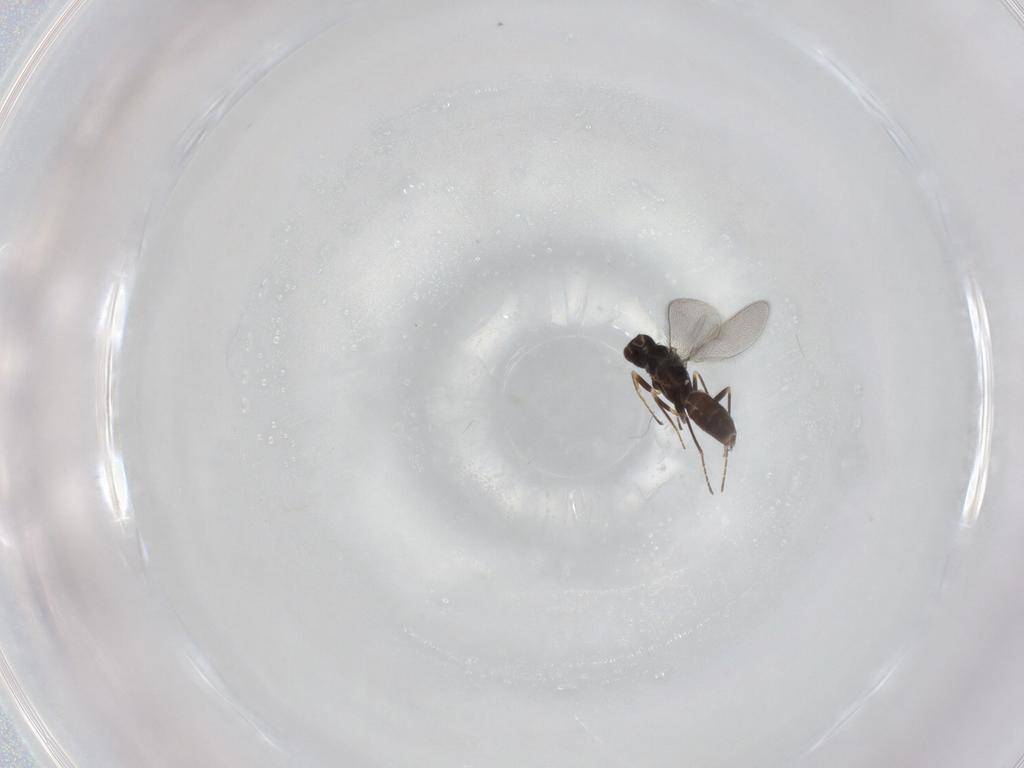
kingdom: Animalia
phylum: Arthropoda
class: Insecta
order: Hymenoptera
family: Mymaridae
